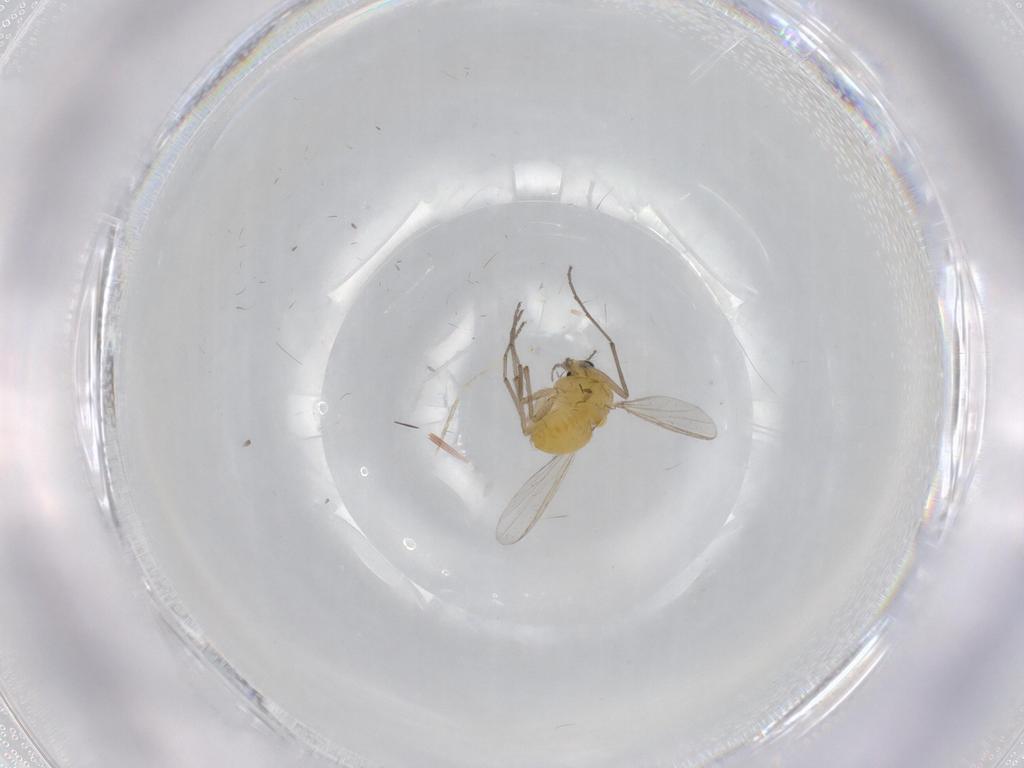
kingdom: Animalia
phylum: Arthropoda
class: Insecta
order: Diptera
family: Chironomidae
